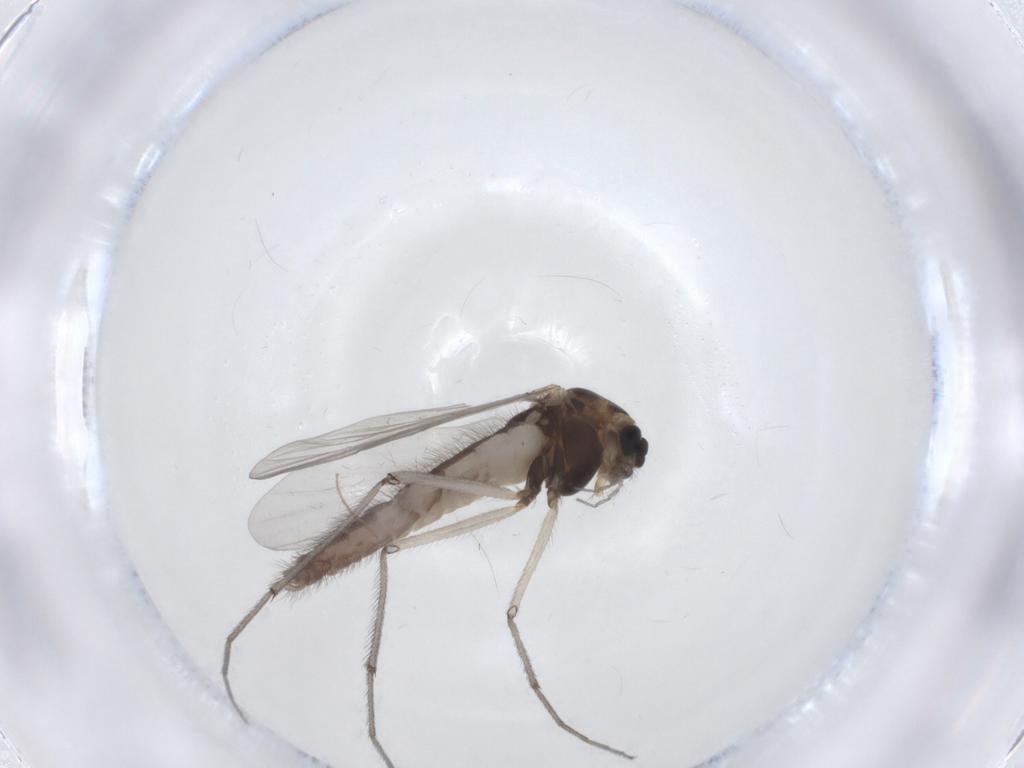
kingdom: Animalia
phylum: Arthropoda
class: Insecta
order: Diptera
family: Chironomidae
